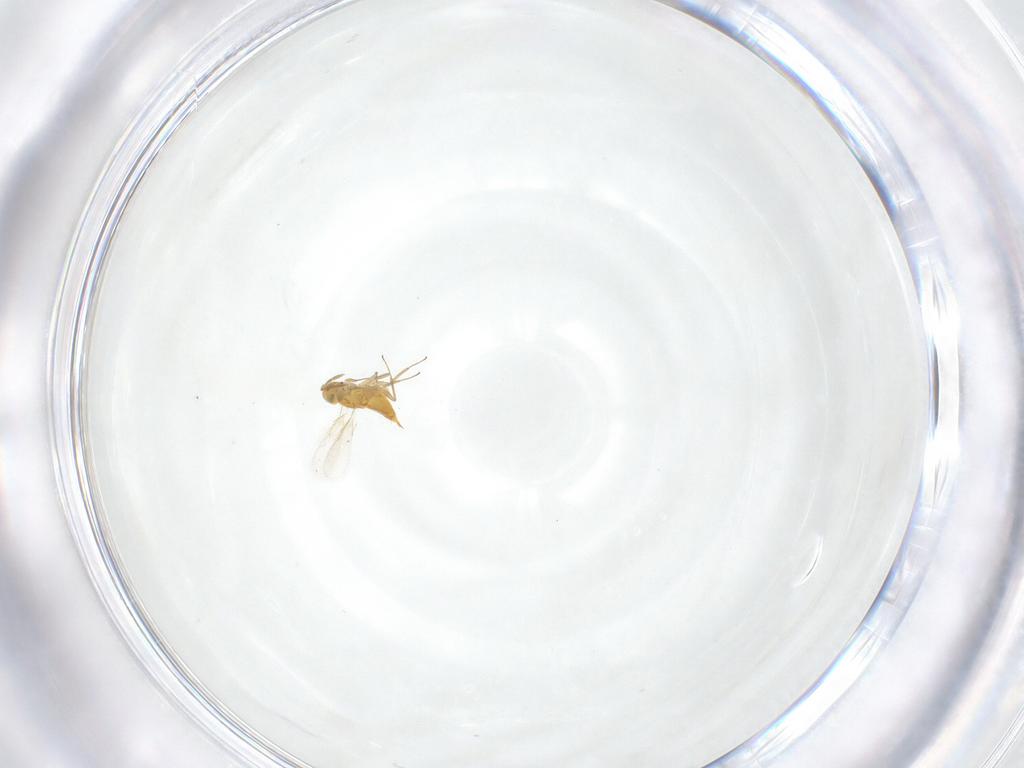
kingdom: Animalia
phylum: Arthropoda
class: Insecta
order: Hymenoptera
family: Aphelinidae
